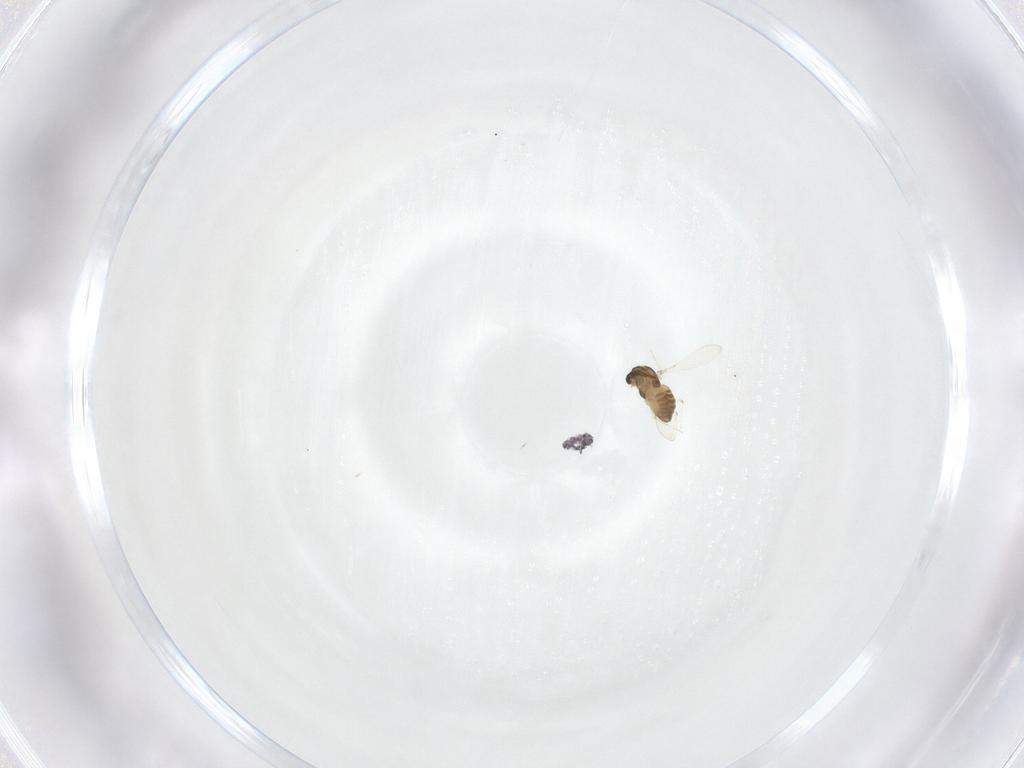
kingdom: Animalia
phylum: Arthropoda
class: Insecta
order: Diptera
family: Chironomidae
